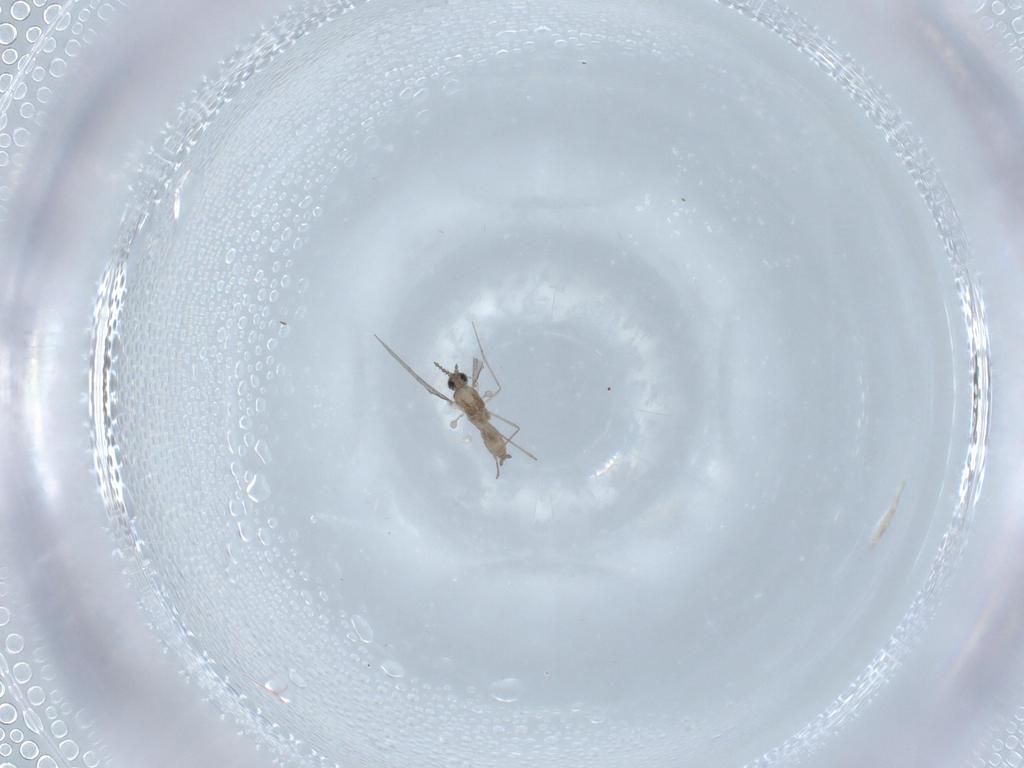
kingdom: Animalia
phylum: Arthropoda
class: Insecta
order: Diptera
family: Cecidomyiidae
